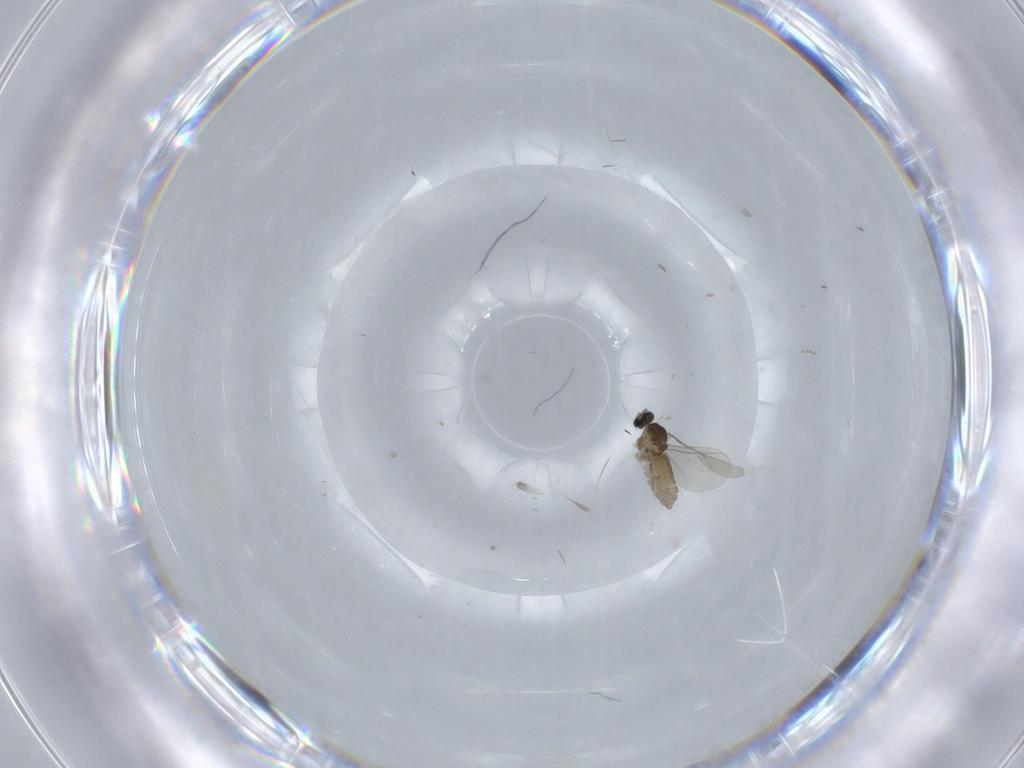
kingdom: Animalia
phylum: Arthropoda
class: Insecta
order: Diptera
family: Cecidomyiidae
